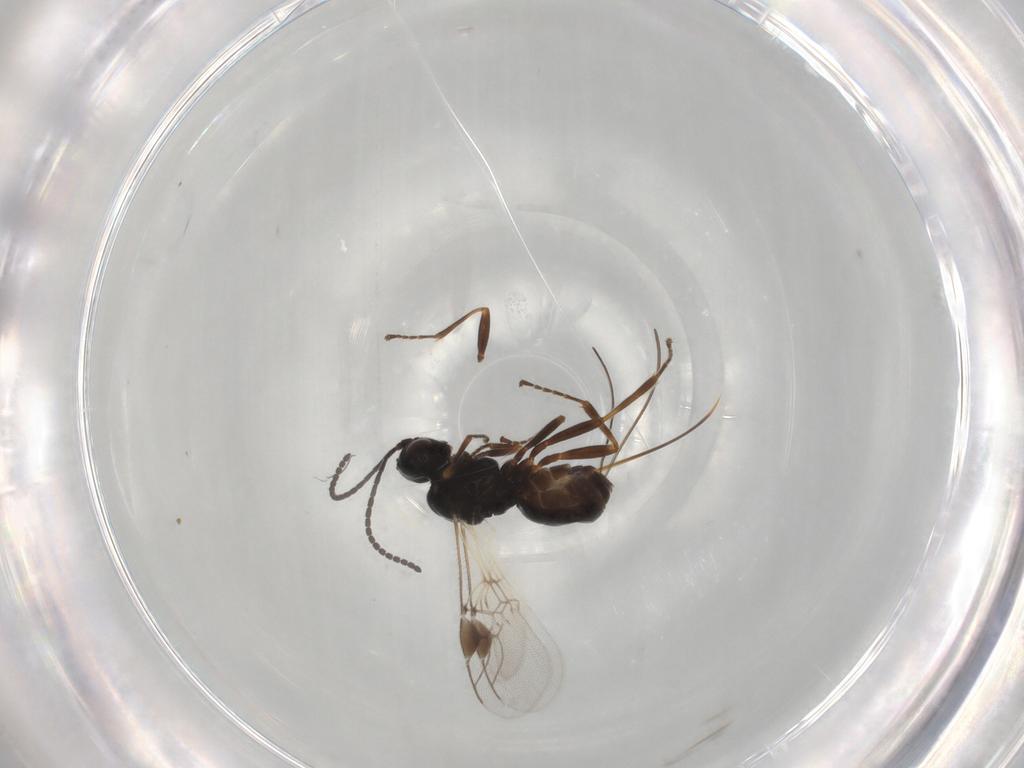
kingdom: Animalia
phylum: Arthropoda
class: Insecta
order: Hymenoptera
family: Braconidae
